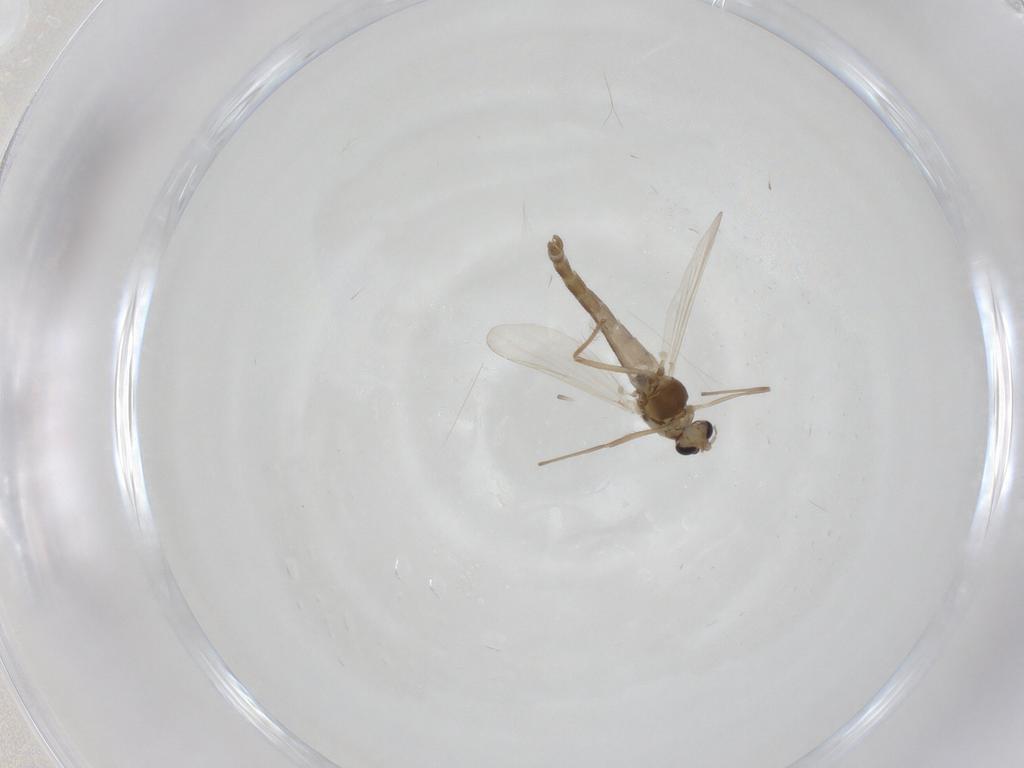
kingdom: Animalia
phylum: Arthropoda
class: Insecta
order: Diptera
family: Chironomidae
